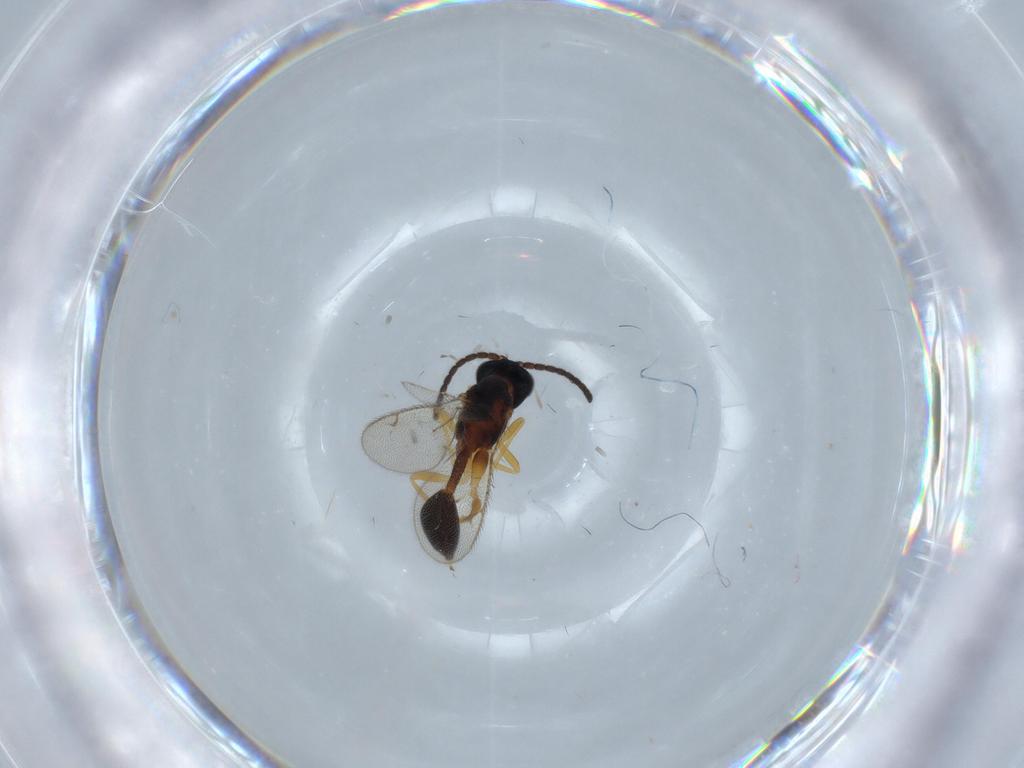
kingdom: Animalia
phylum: Arthropoda
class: Insecta
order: Hymenoptera
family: Diparidae
